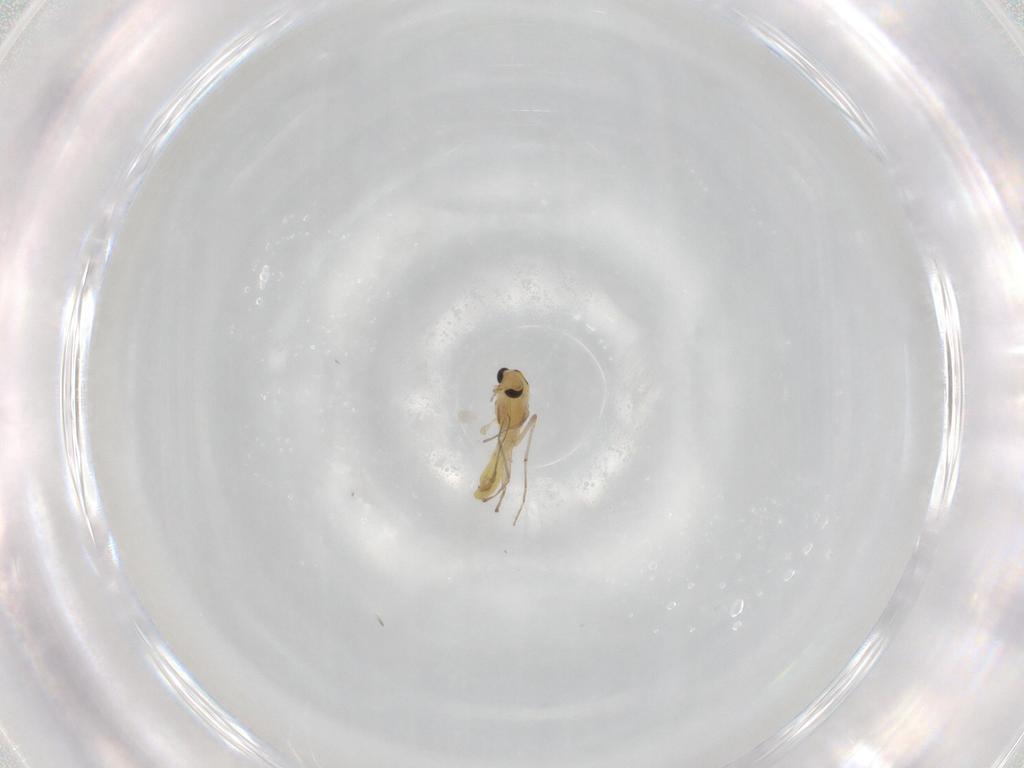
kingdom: Animalia
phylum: Arthropoda
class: Insecta
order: Diptera
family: Chironomidae
